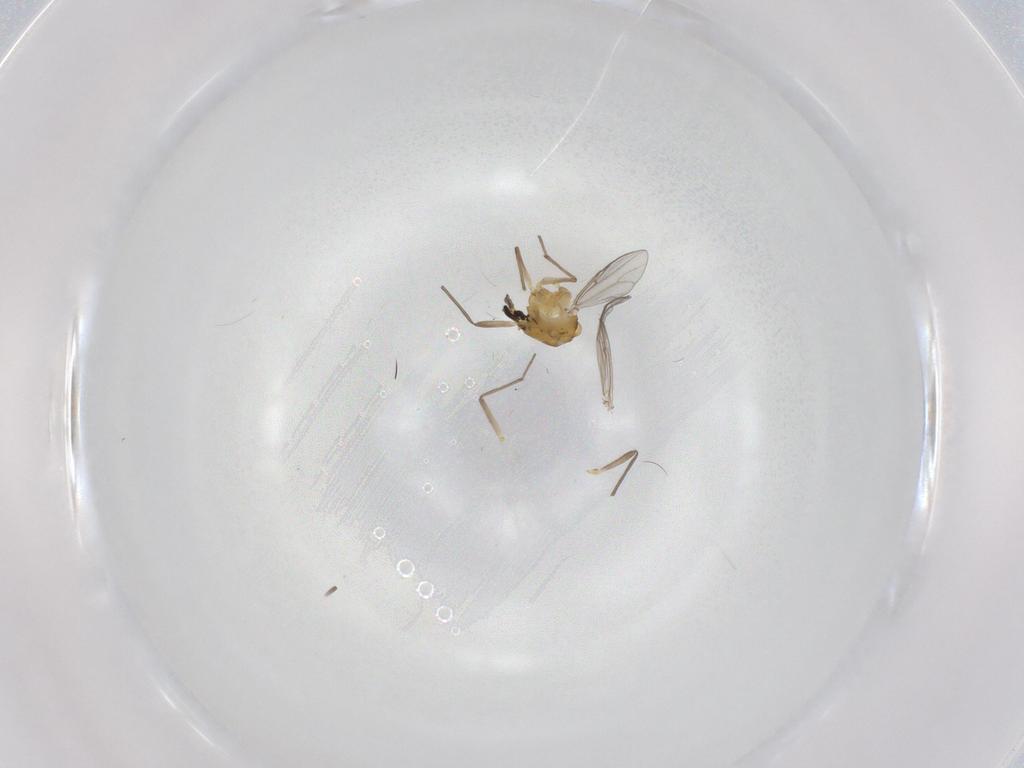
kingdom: Animalia
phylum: Arthropoda
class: Insecta
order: Diptera
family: Chironomidae
